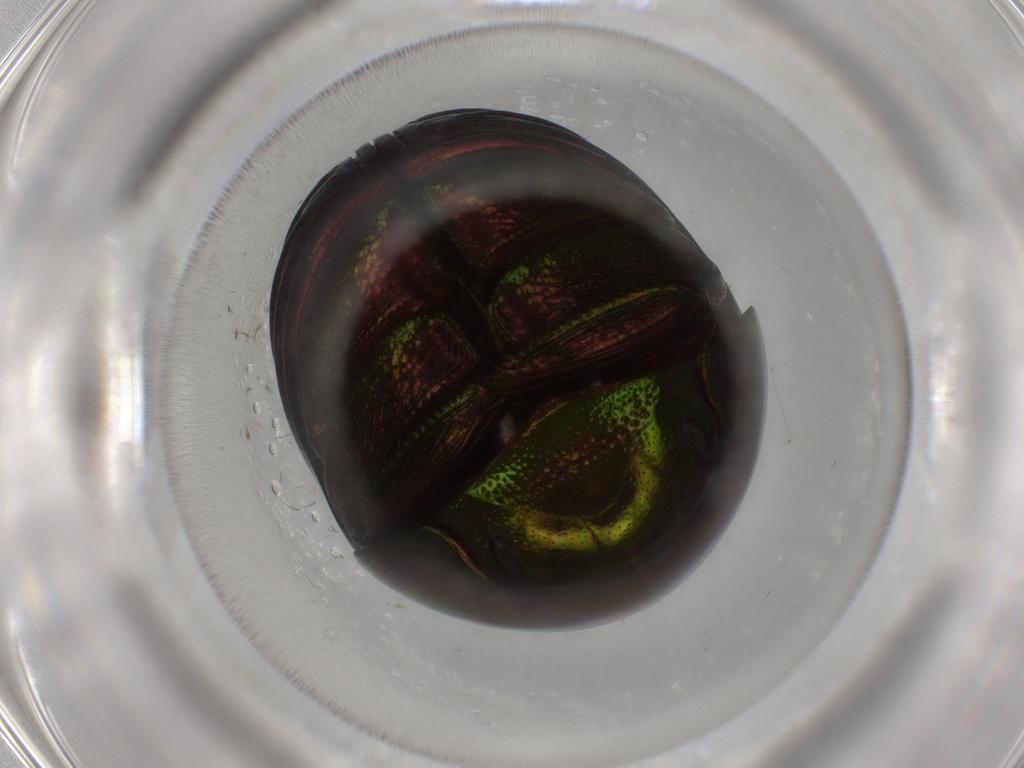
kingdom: Animalia
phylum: Arthropoda
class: Insecta
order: Coleoptera
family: Hybosoridae
